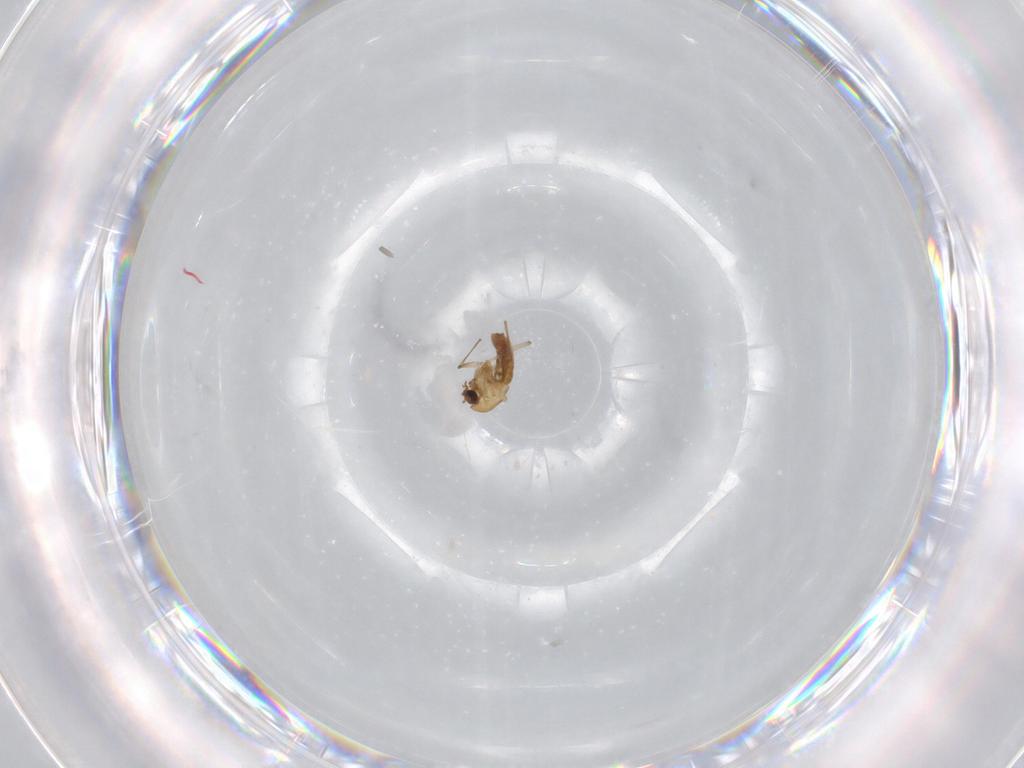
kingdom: Animalia
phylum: Arthropoda
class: Insecta
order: Diptera
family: Chironomidae
